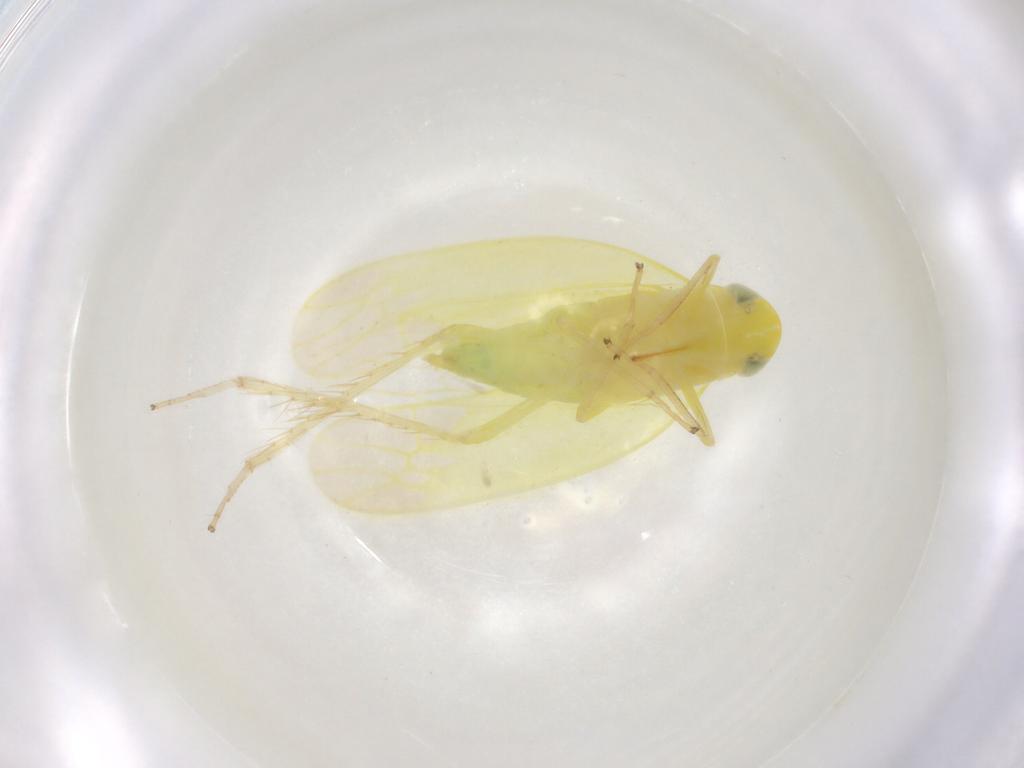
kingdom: Animalia
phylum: Arthropoda
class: Insecta
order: Hemiptera
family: Cicadellidae
